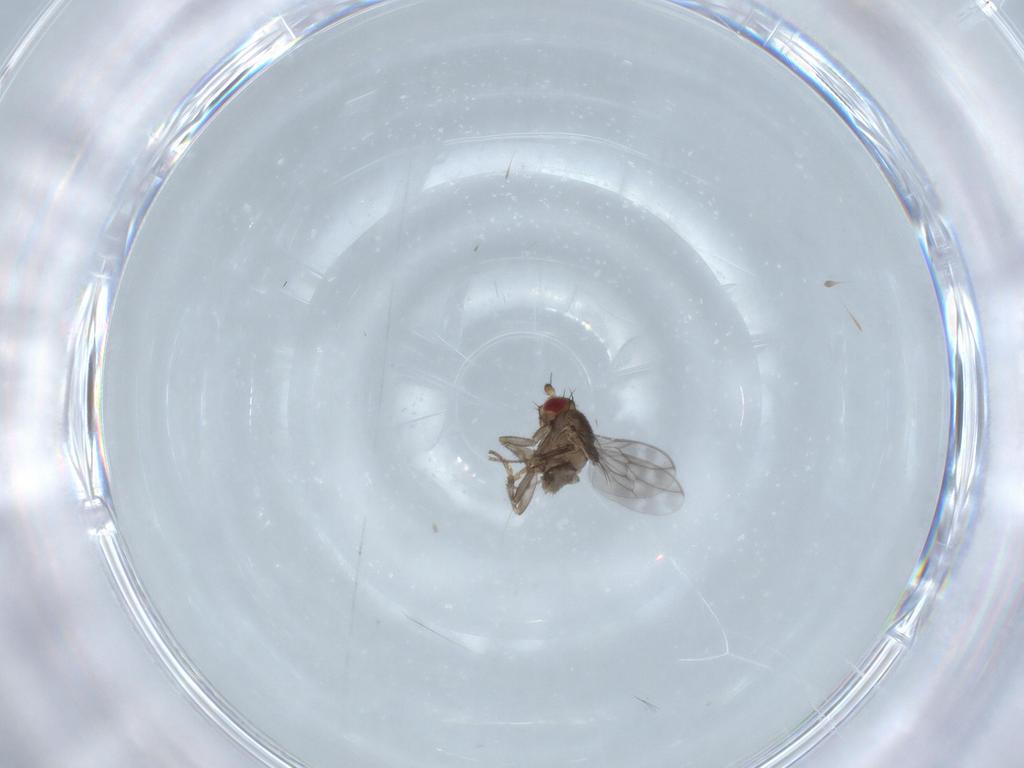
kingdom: Animalia
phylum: Arthropoda
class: Insecta
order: Diptera
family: Sphaeroceridae
